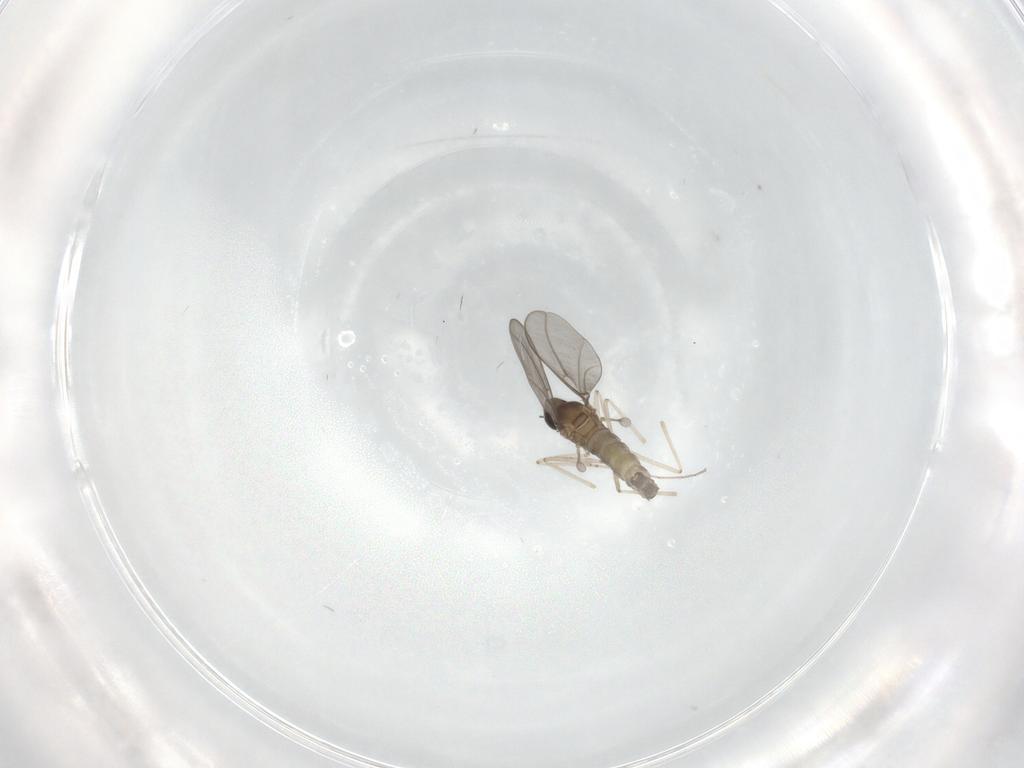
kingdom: Animalia
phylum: Arthropoda
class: Insecta
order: Diptera
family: Cecidomyiidae
